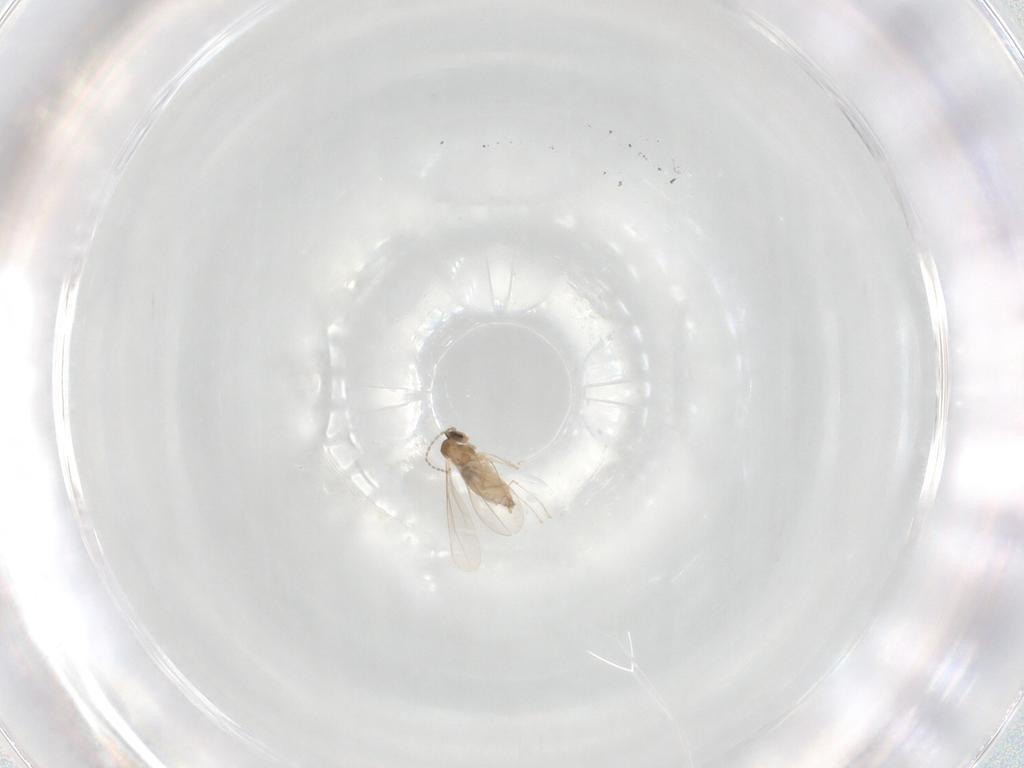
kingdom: Animalia
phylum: Arthropoda
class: Insecta
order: Diptera
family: Cecidomyiidae
